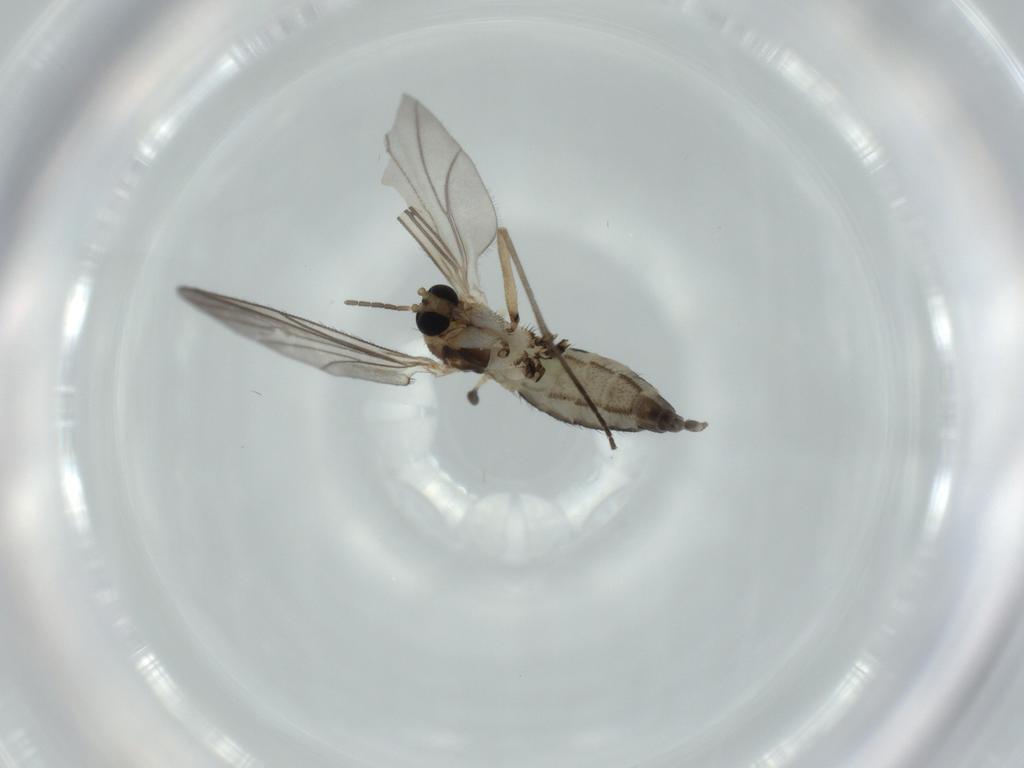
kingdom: Animalia
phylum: Arthropoda
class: Insecta
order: Diptera
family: Sciaridae
